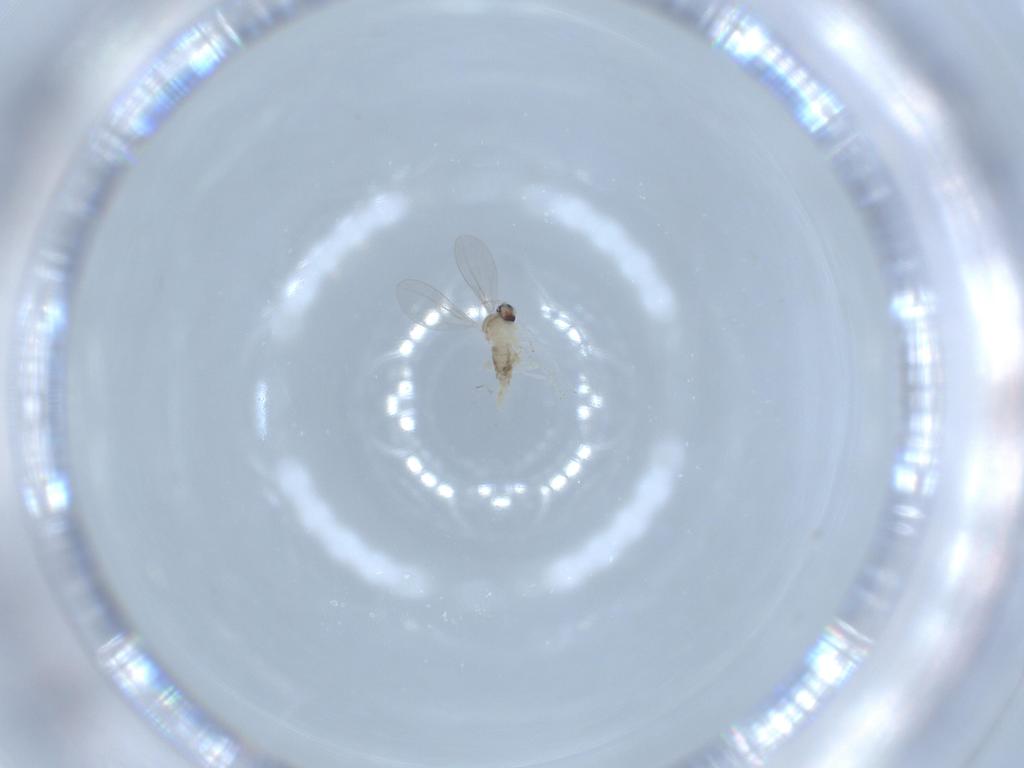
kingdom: Animalia
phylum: Arthropoda
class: Insecta
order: Diptera
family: Cecidomyiidae
